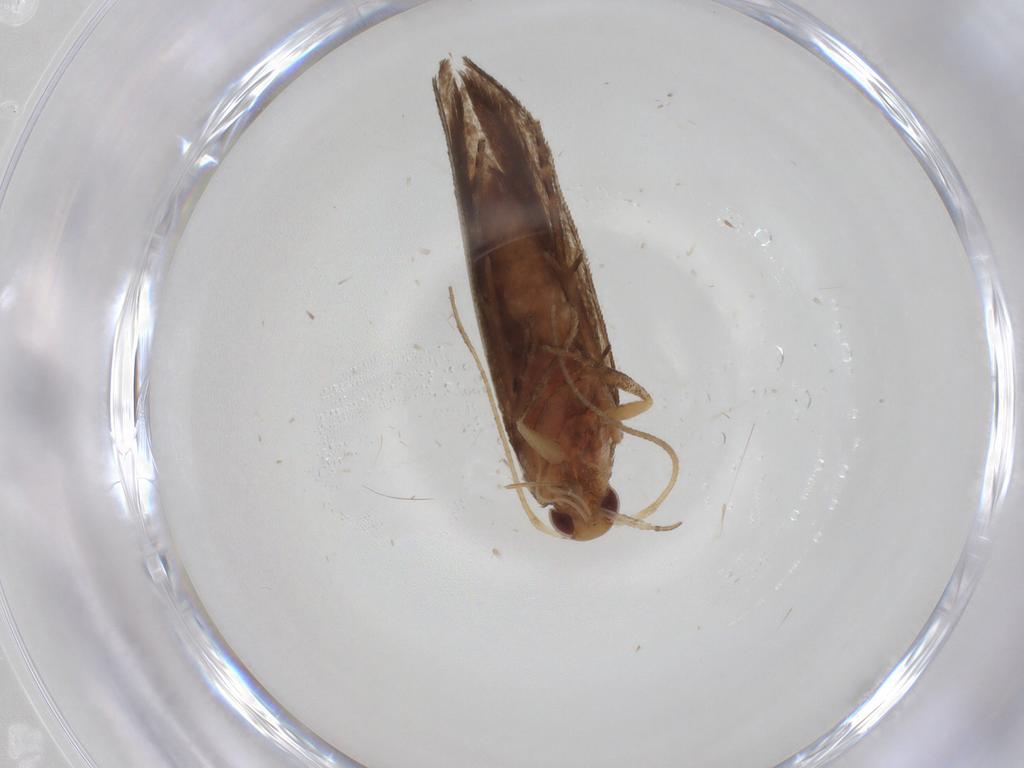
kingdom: Animalia
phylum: Arthropoda
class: Insecta
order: Lepidoptera
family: Gelechiidae
